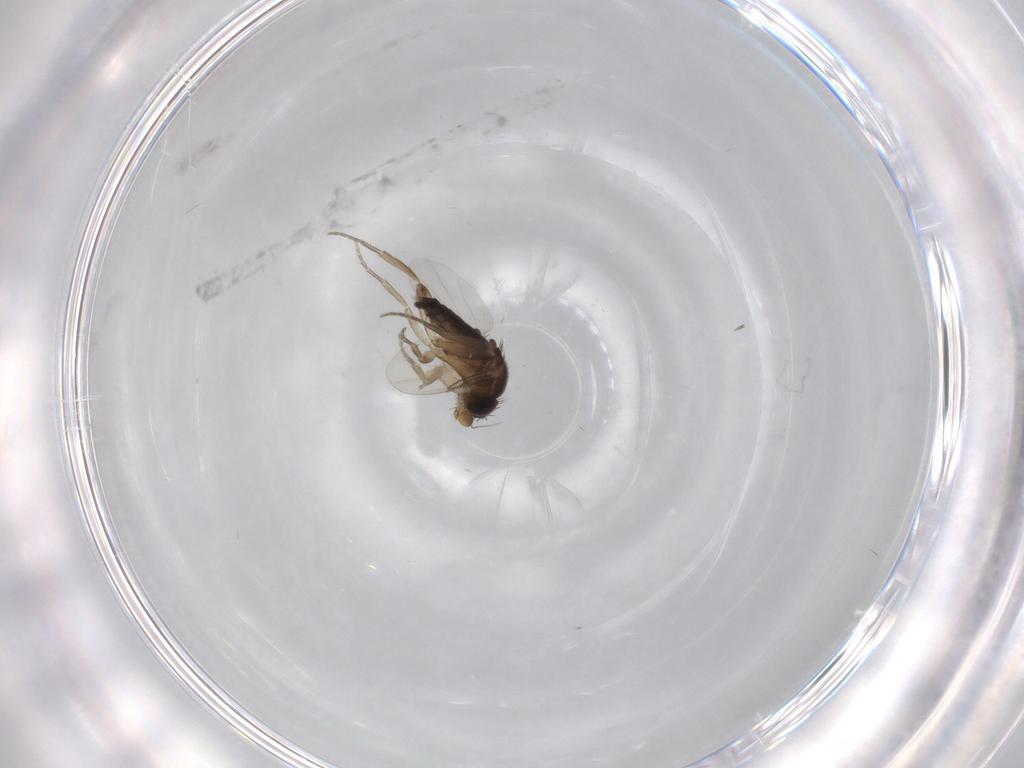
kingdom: Animalia
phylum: Arthropoda
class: Insecta
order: Diptera
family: Phoridae
